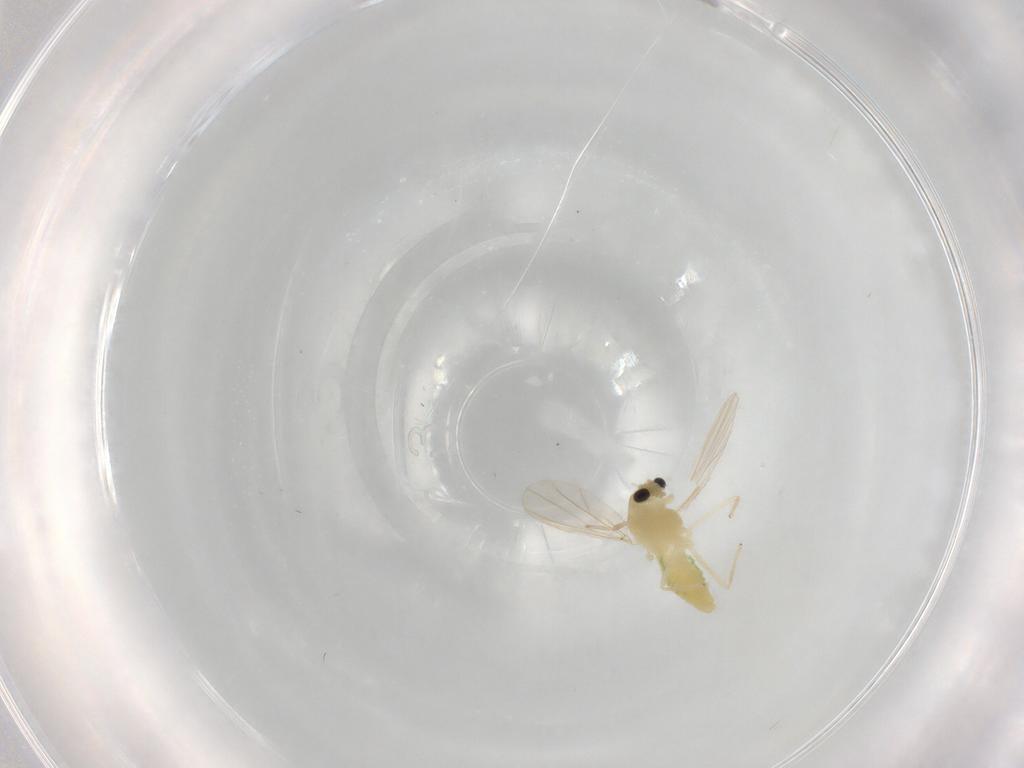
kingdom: Animalia
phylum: Arthropoda
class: Insecta
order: Diptera
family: Chironomidae
